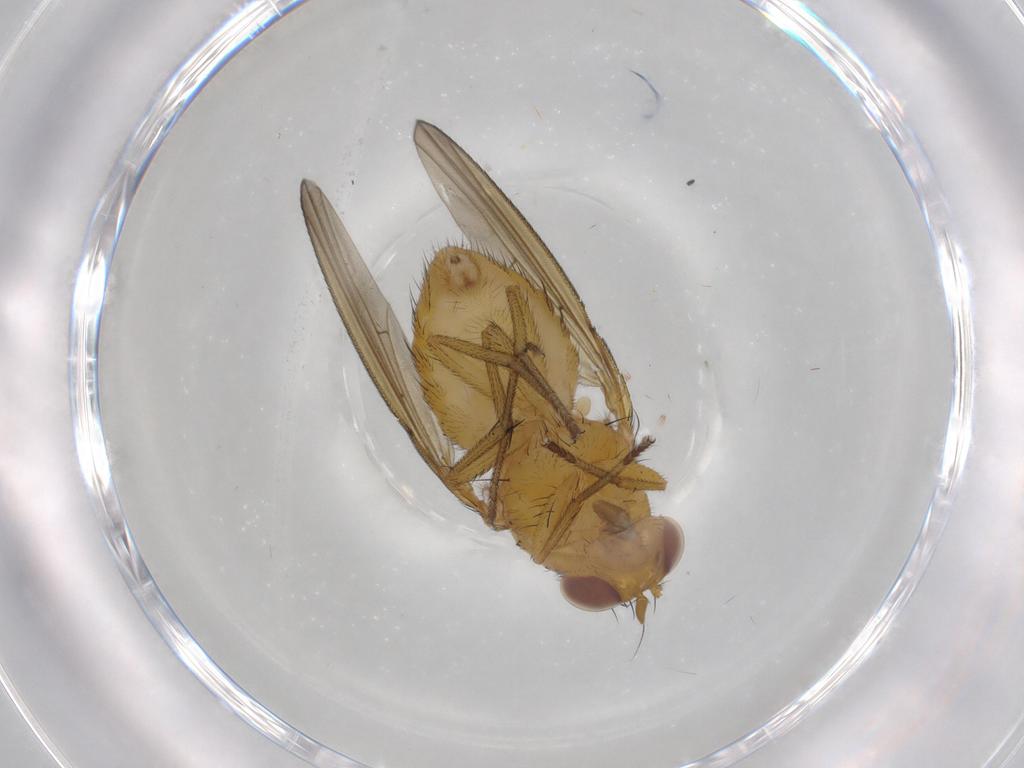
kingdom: Animalia
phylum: Arthropoda
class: Insecta
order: Diptera
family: Lauxaniidae
